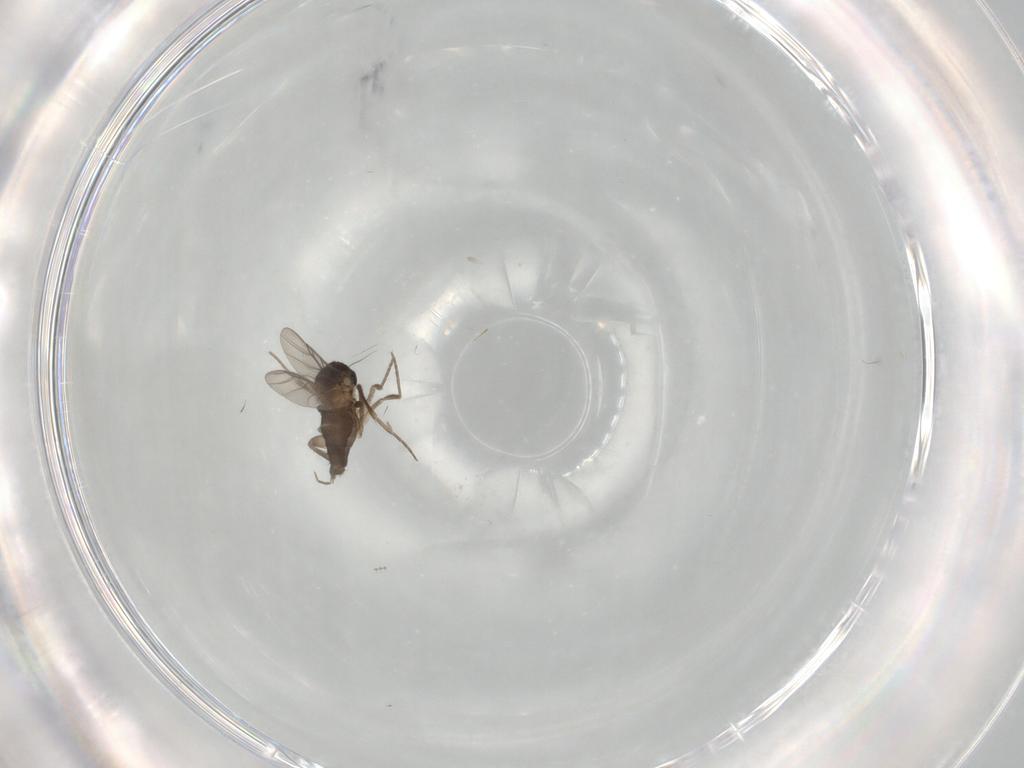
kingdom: Animalia
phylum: Arthropoda
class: Insecta
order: Diptera
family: Cecidomyiidae
